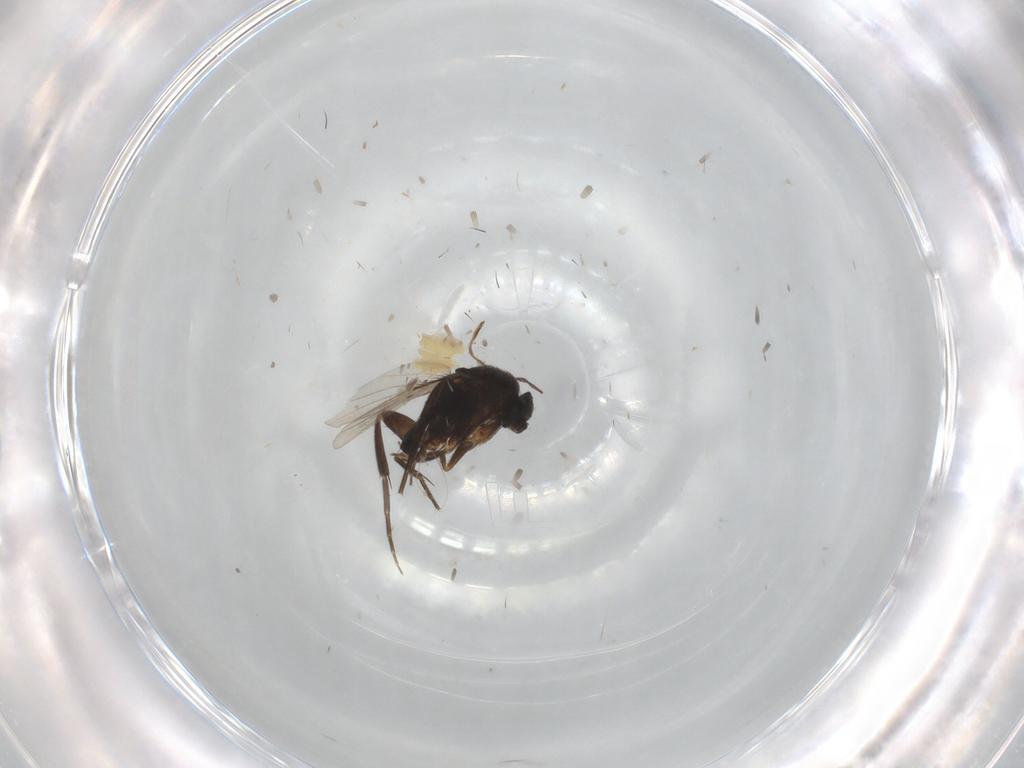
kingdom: Animalia
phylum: Arthropoda
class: Insecta
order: Diptera
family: Phoridae
